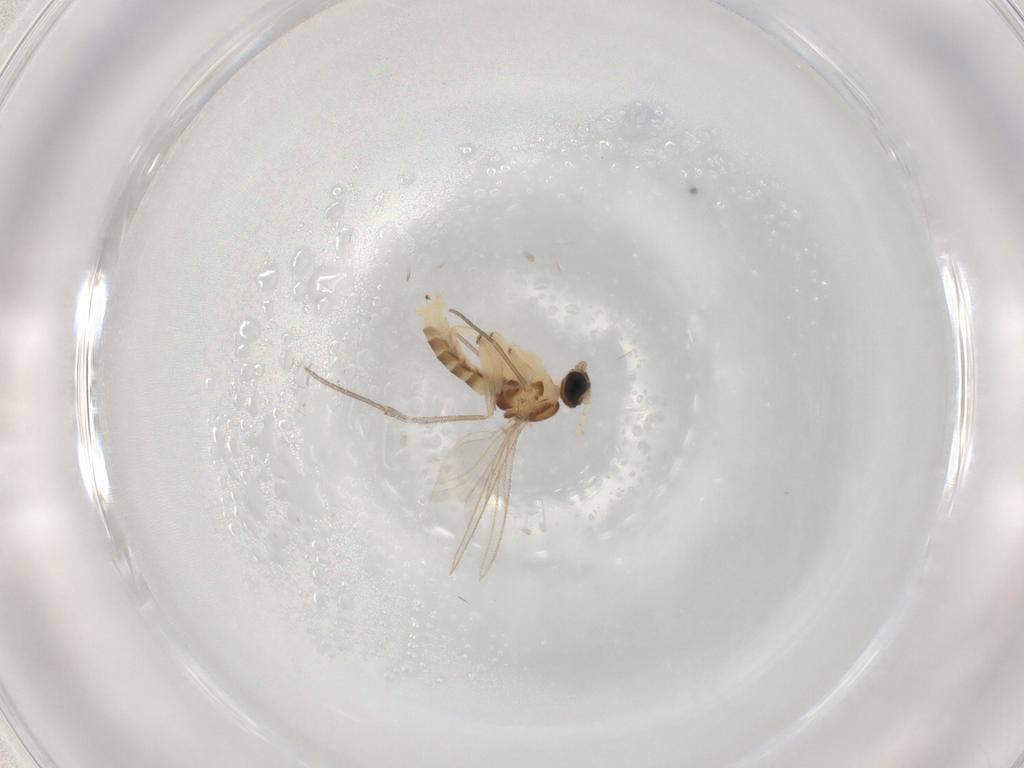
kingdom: Animalia
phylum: Arthropoda
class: Insecta
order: Diptera
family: Sciaridae
